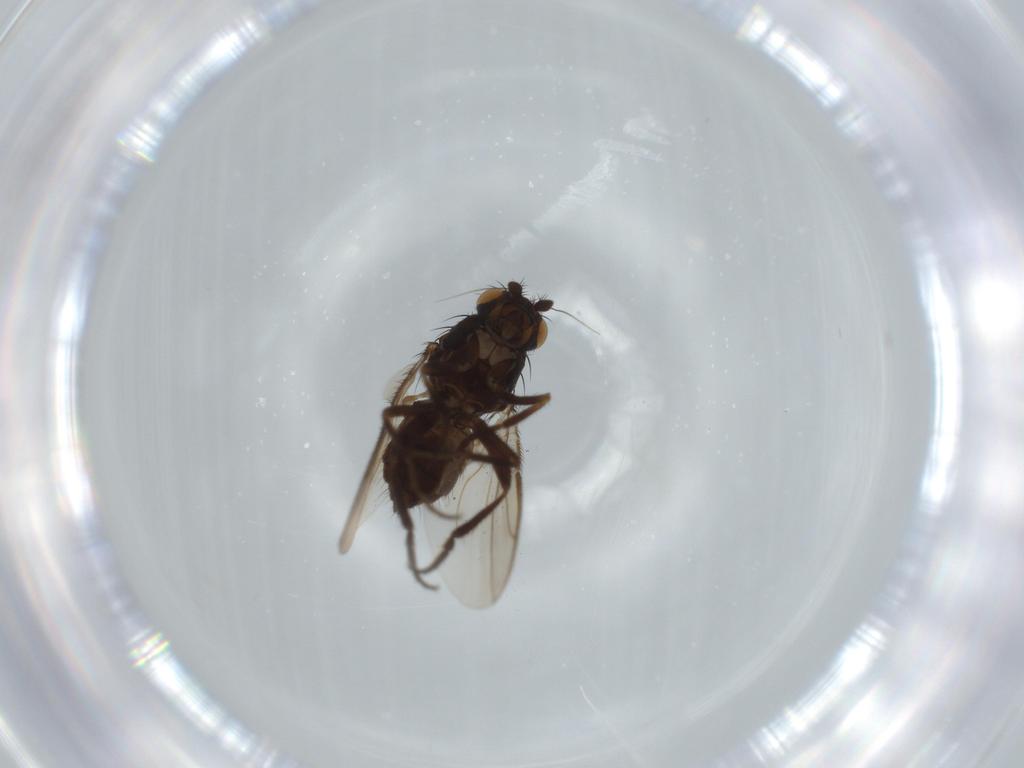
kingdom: Animalia
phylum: Arthropoda
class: Insecta
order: Diptera
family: Sphaeroceridae
